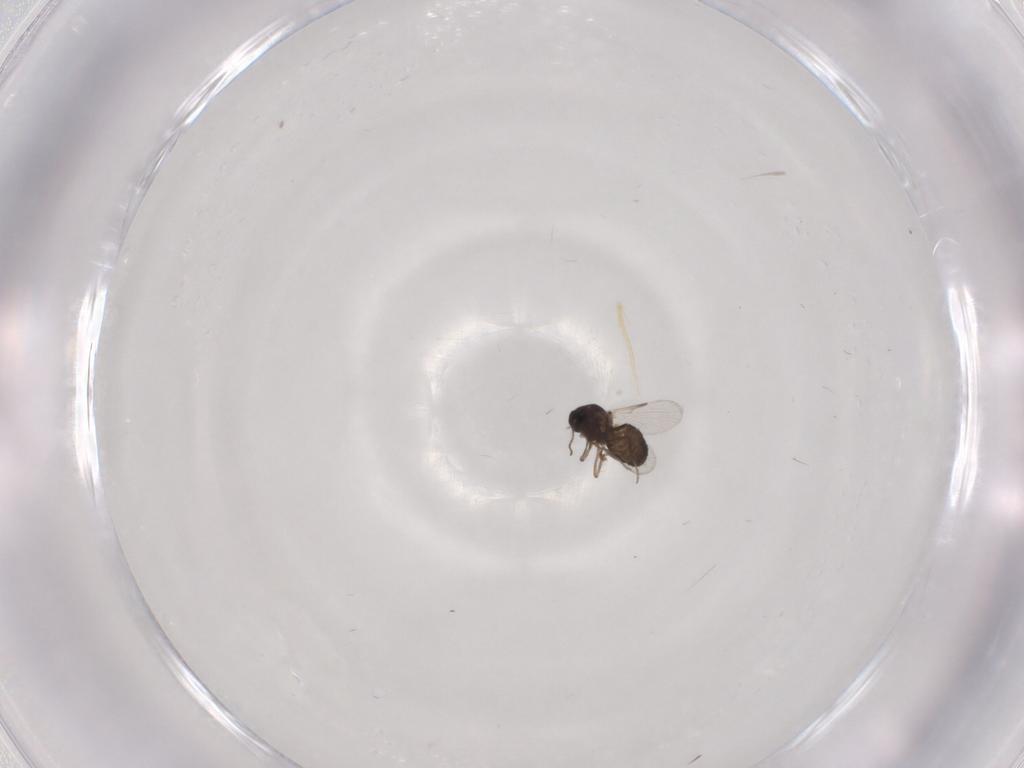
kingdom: Animalia
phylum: Arthropoda
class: Insecta
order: Diptera
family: Ceratopogonidae
